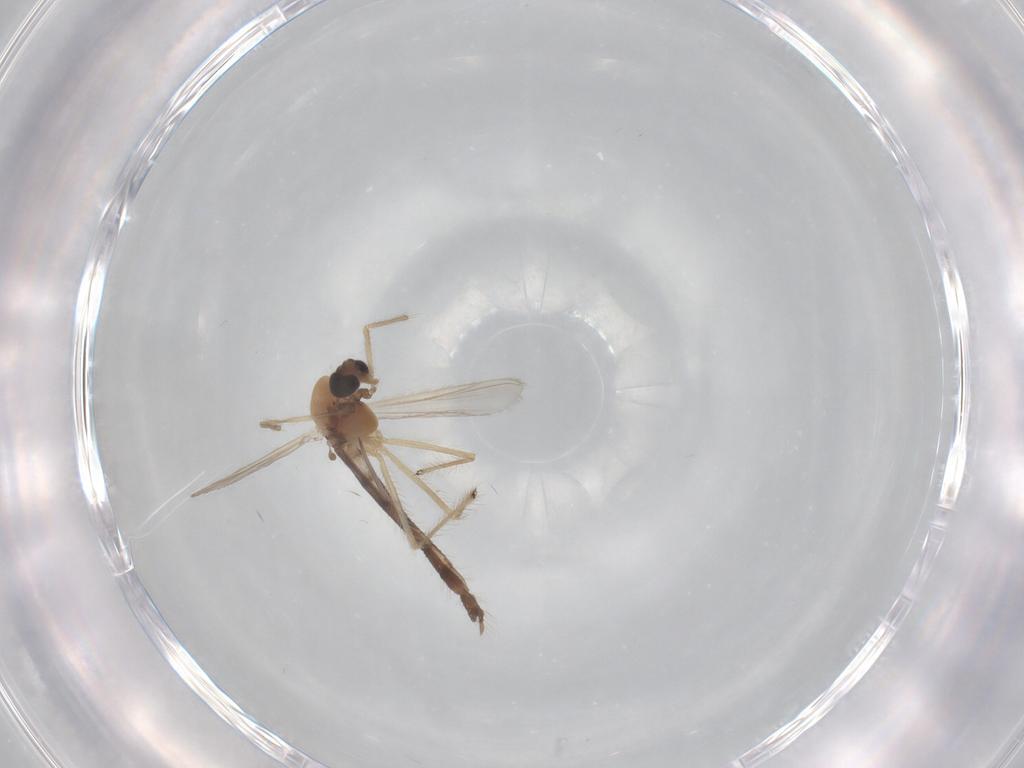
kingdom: Animalia
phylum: Arthropoda
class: Insecta
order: Diptera
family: Chironomidae
